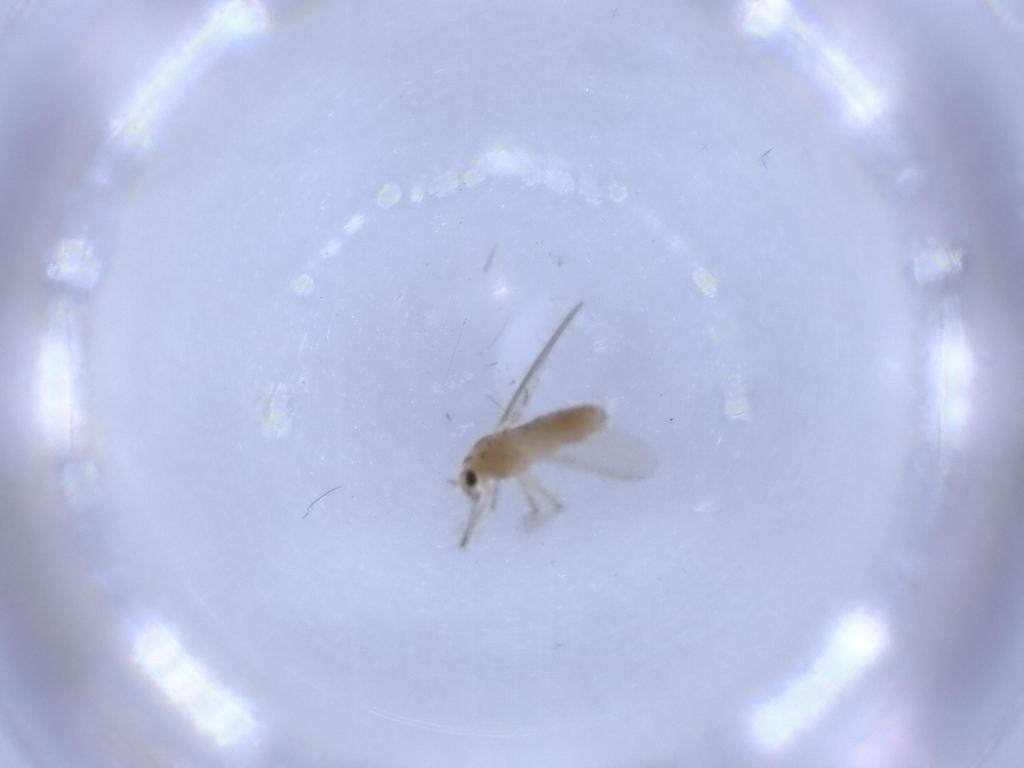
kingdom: Animalia
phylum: Arthropoda
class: Insecta
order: Diptera
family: Chironomidae
